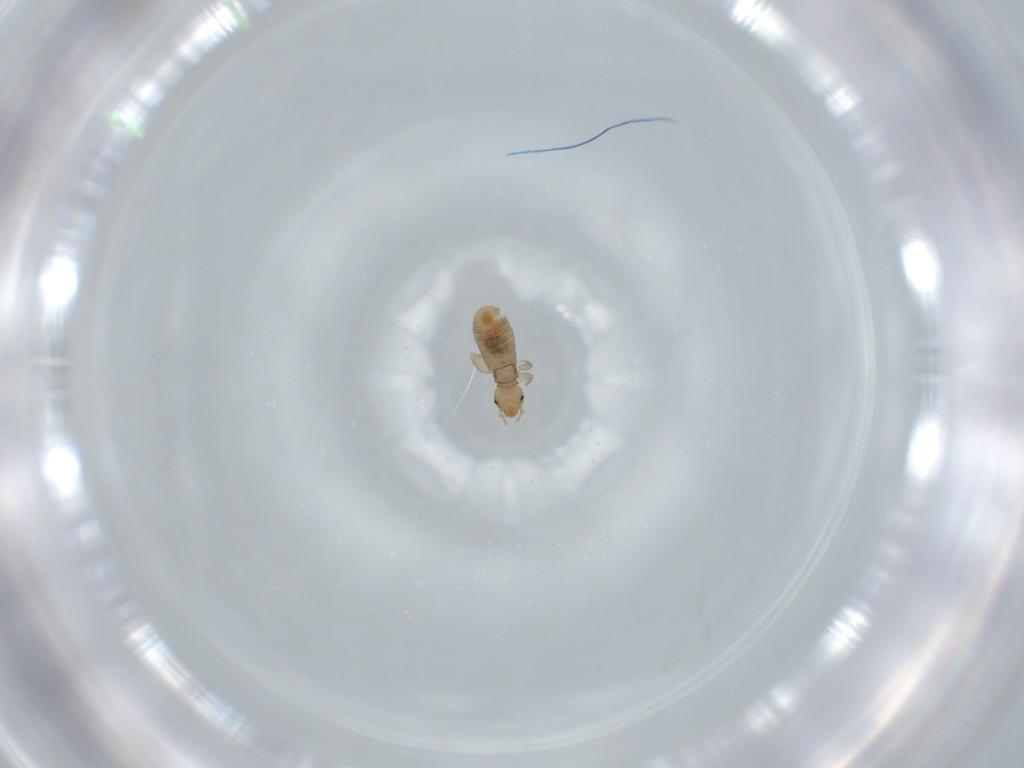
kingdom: Animalia
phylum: Arthropoda
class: Insecta
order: Psocodea
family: Liposcelididae
